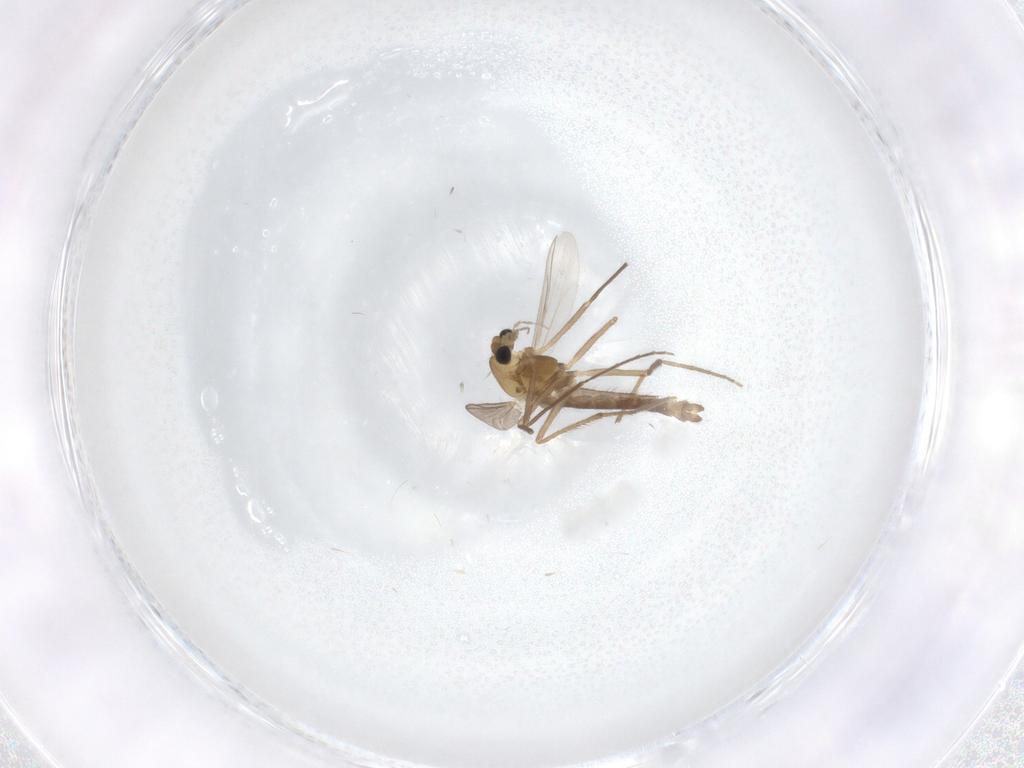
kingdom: Animalia
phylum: Arthropoda
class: Insecta
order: Diptera
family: Chironomidae
